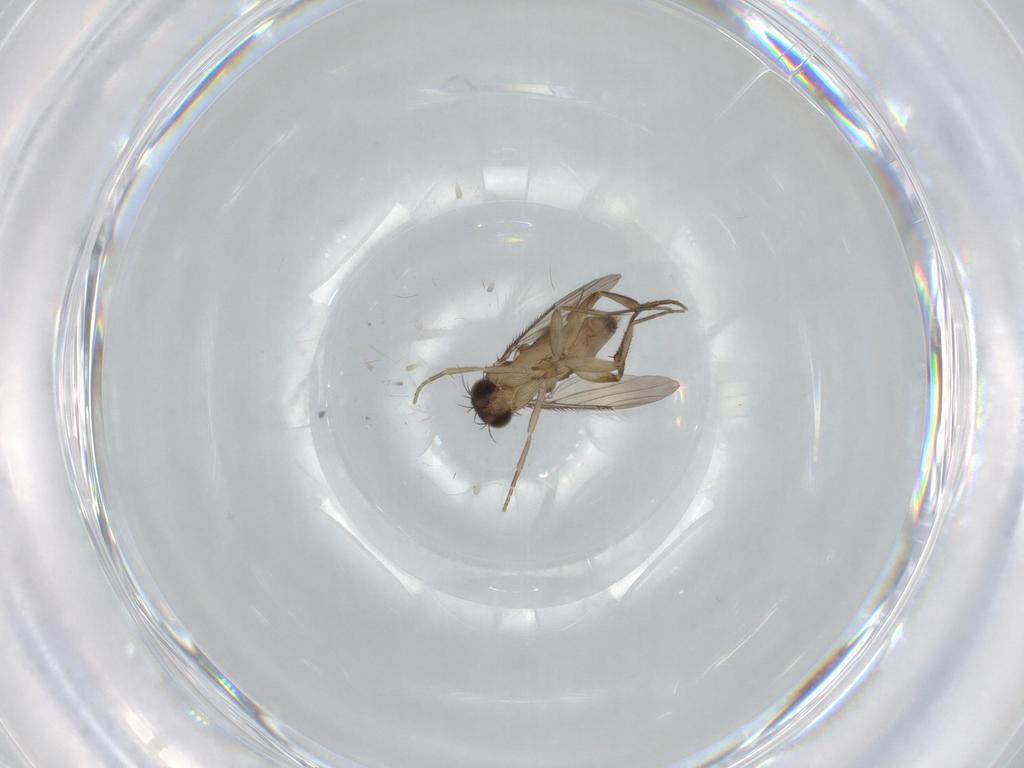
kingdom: Animalia
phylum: Arthropoda
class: Insecta
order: Diptera
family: Phoridae
